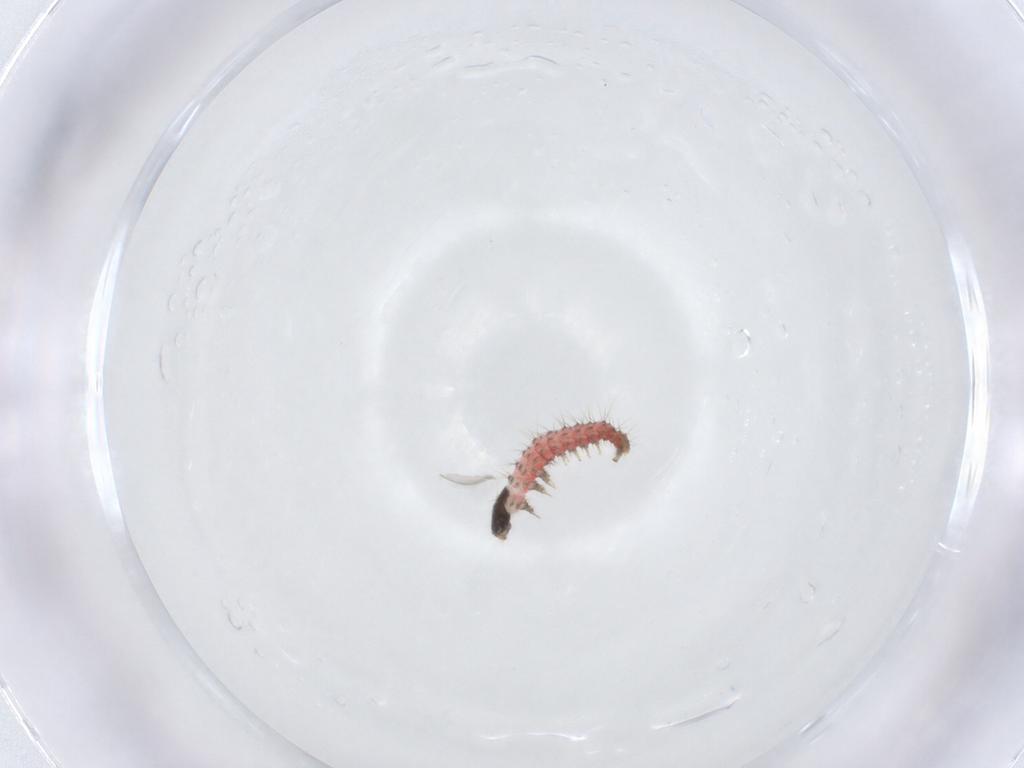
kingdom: Animalia
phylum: Arthropoda
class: Insecta
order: Lepidoptera
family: Crambidae
